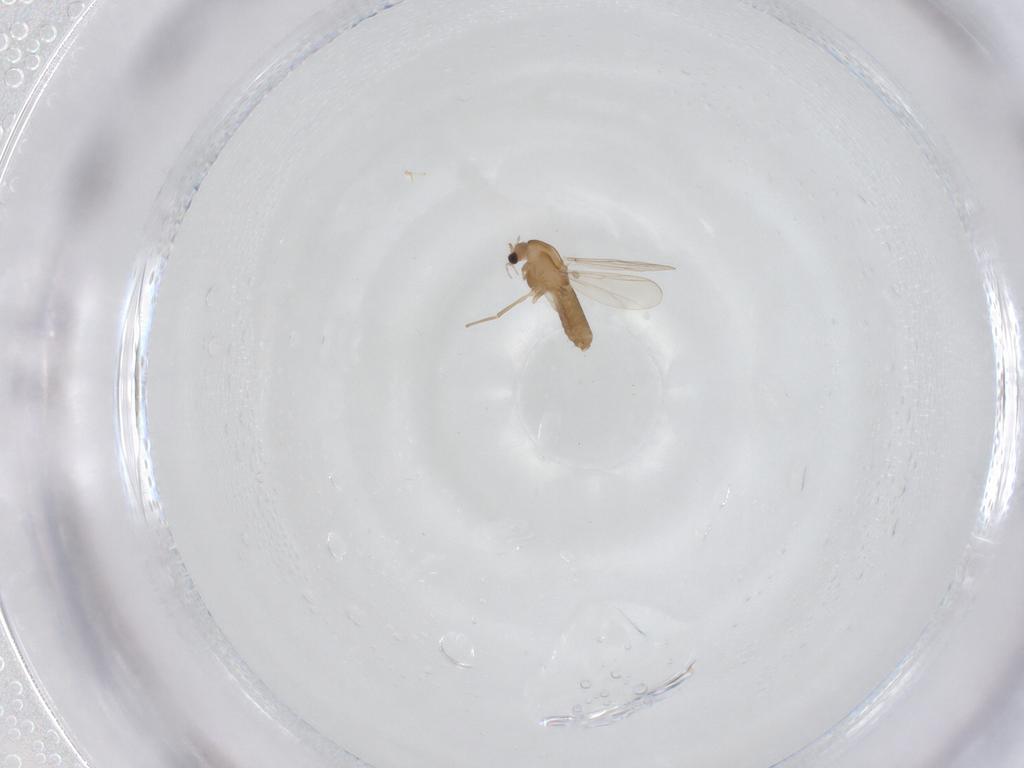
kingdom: Animalia
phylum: Arthropoda
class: Insecta
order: Diptera
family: Chironomidae
